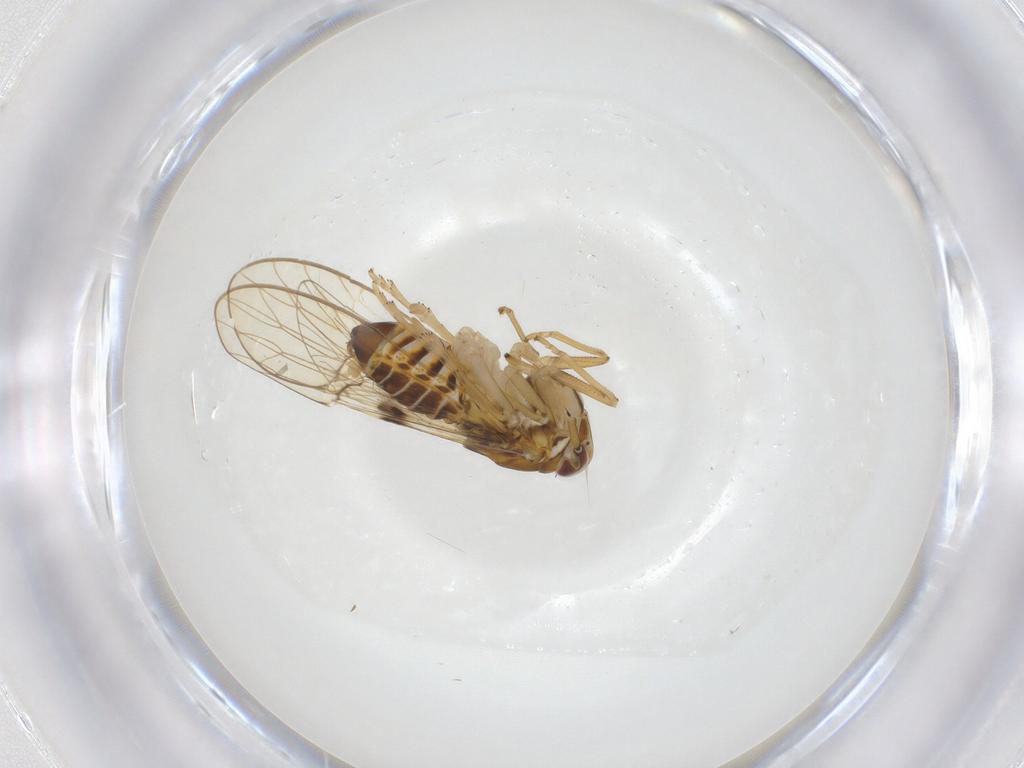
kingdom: Animalia
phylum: Arthropoda
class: Insecta
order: Hemiptera
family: Delphacidae
